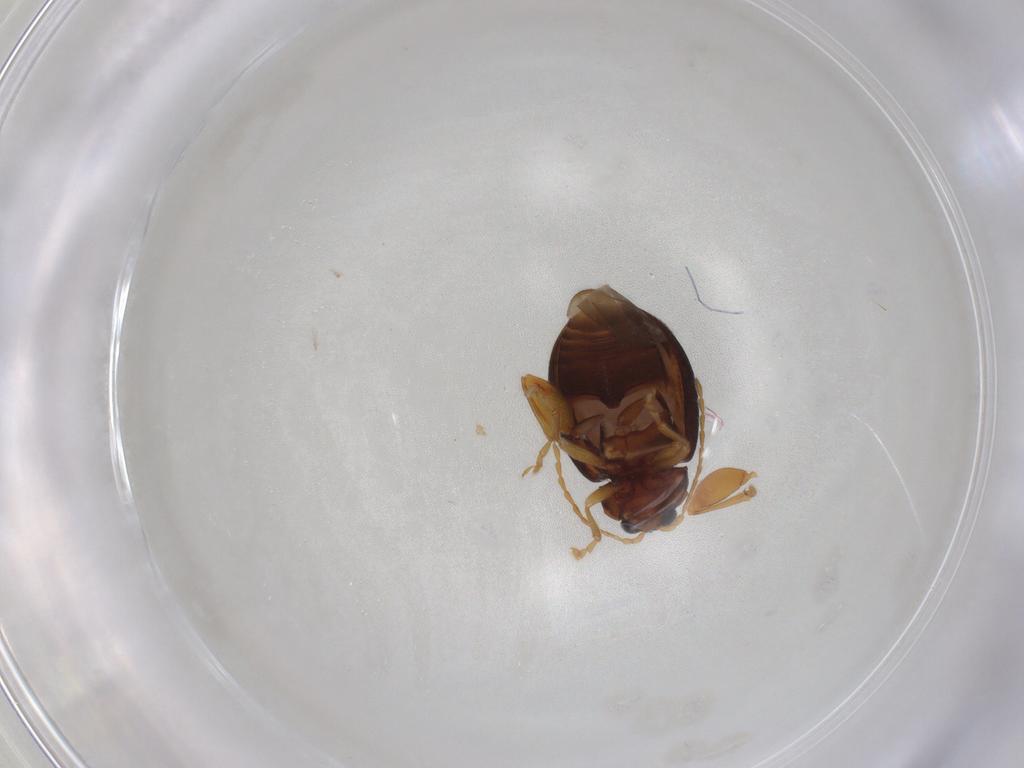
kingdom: Animalia
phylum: Arthropoda
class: Insecta
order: Coleoptera
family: Chrysomelidae
